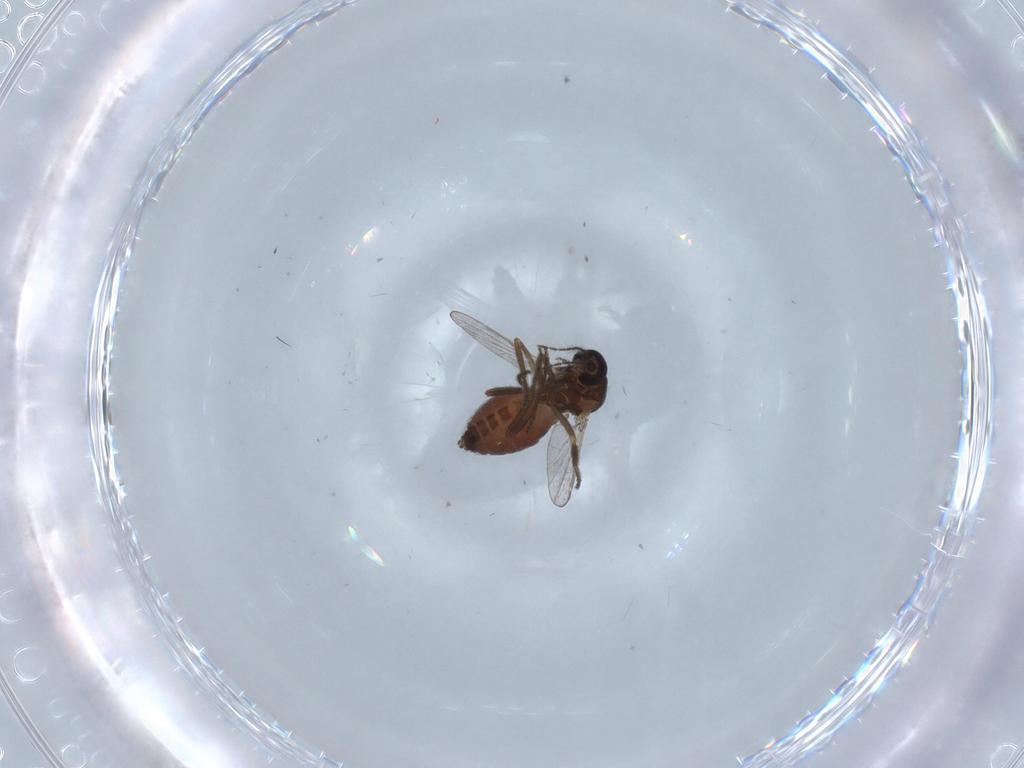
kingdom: Animalia
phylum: Arthropoda
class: Insecta
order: Diptera
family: Ceratopogonidae
